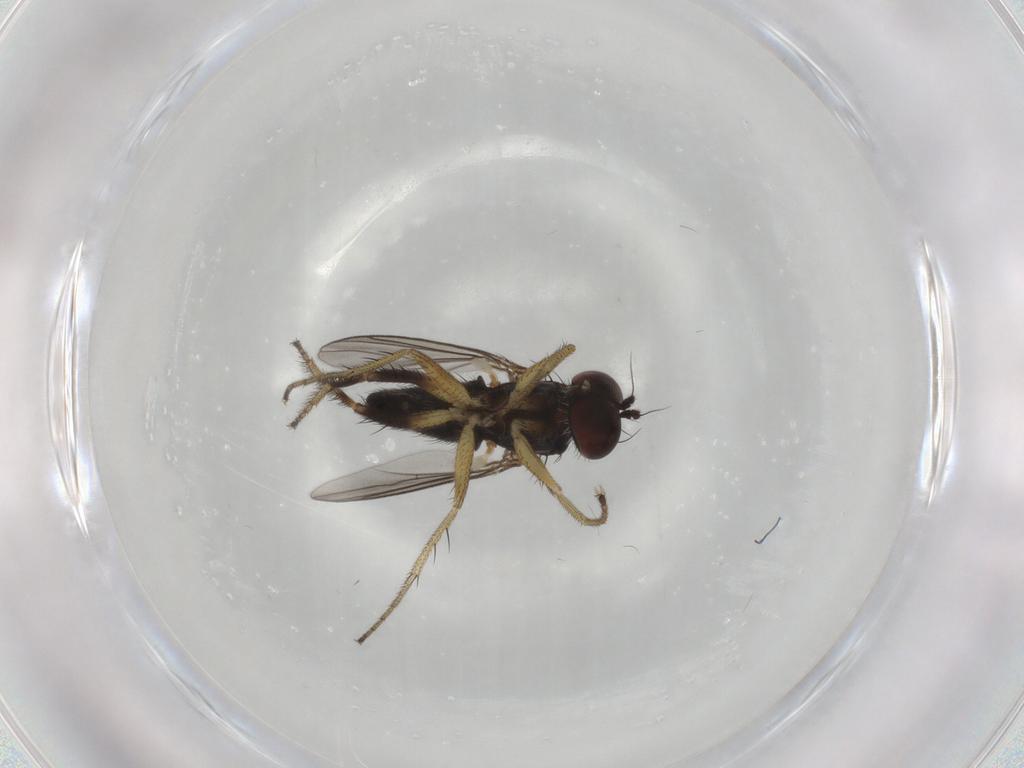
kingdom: Animalia
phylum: Arthropoda
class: Insecta
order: Diptera
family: Dolichopodidae
